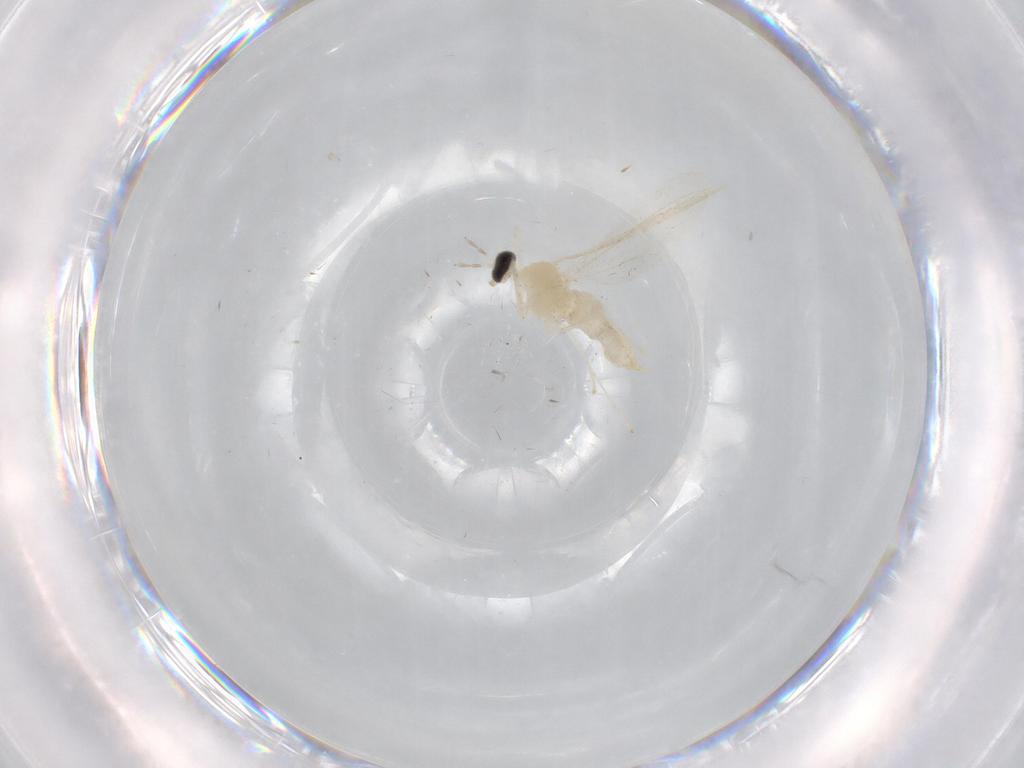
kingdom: Animalia
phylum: Arthropoda
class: Insecta
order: Diptera
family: Cecidomyiidae
